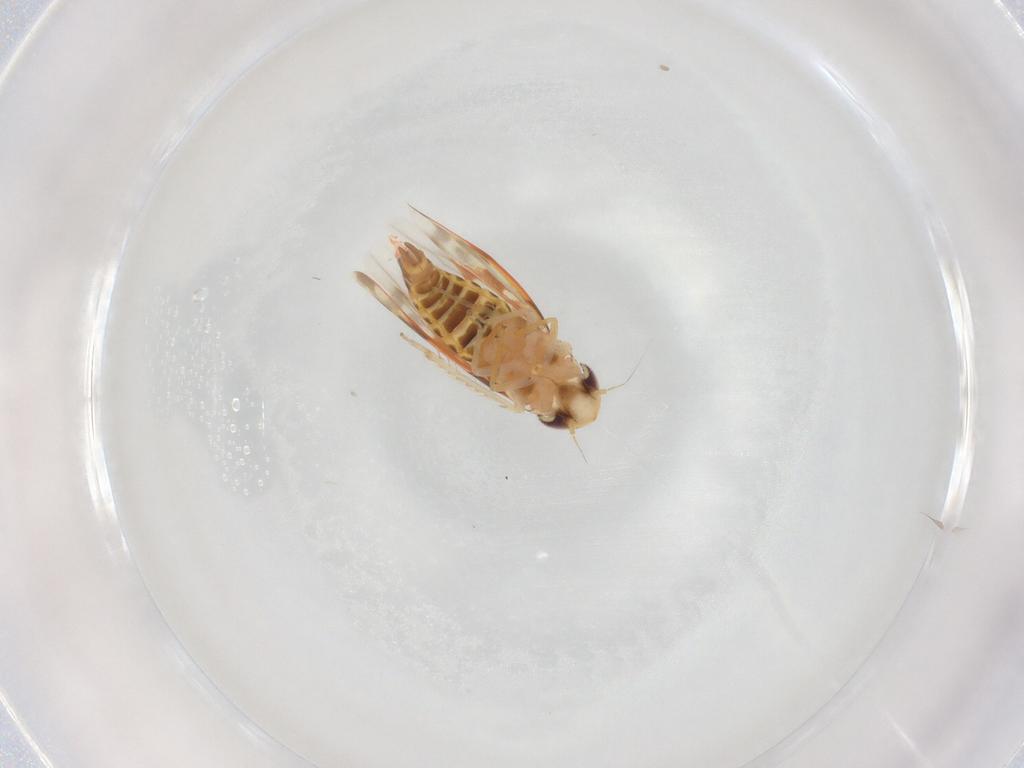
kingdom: Animalia
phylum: Arthropoda
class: Insecta
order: Hemiptera
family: Cicadellidae
